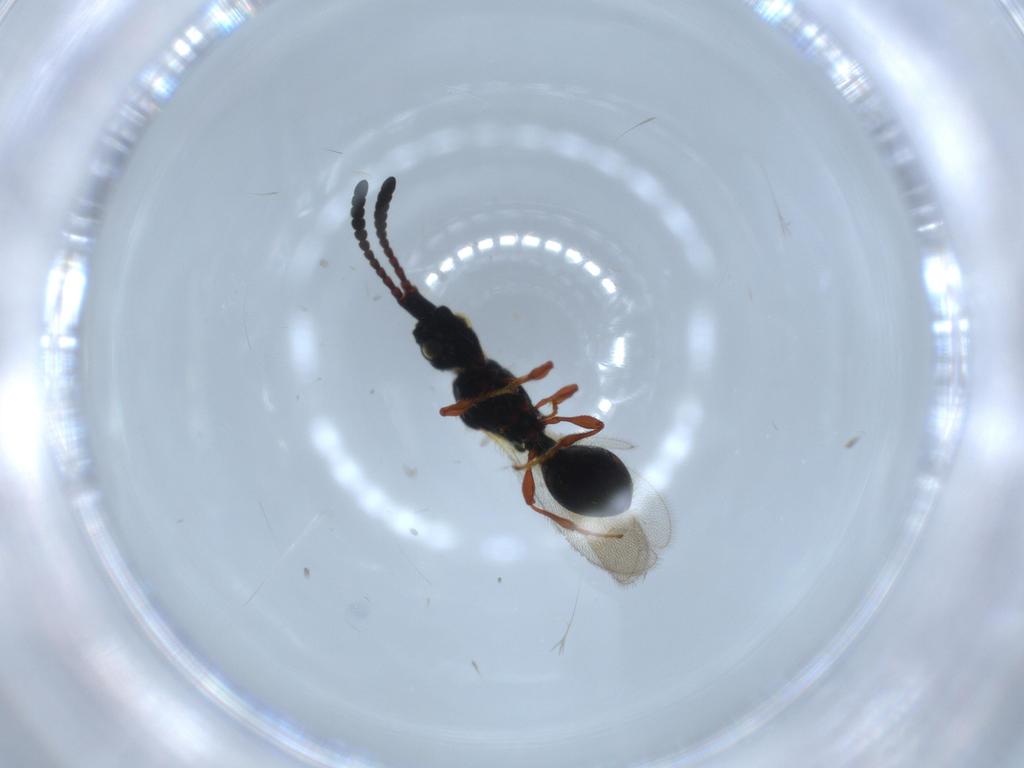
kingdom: Animalia
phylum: Arthropoda
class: Insecta
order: Hymenoptera
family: Diapriidae
